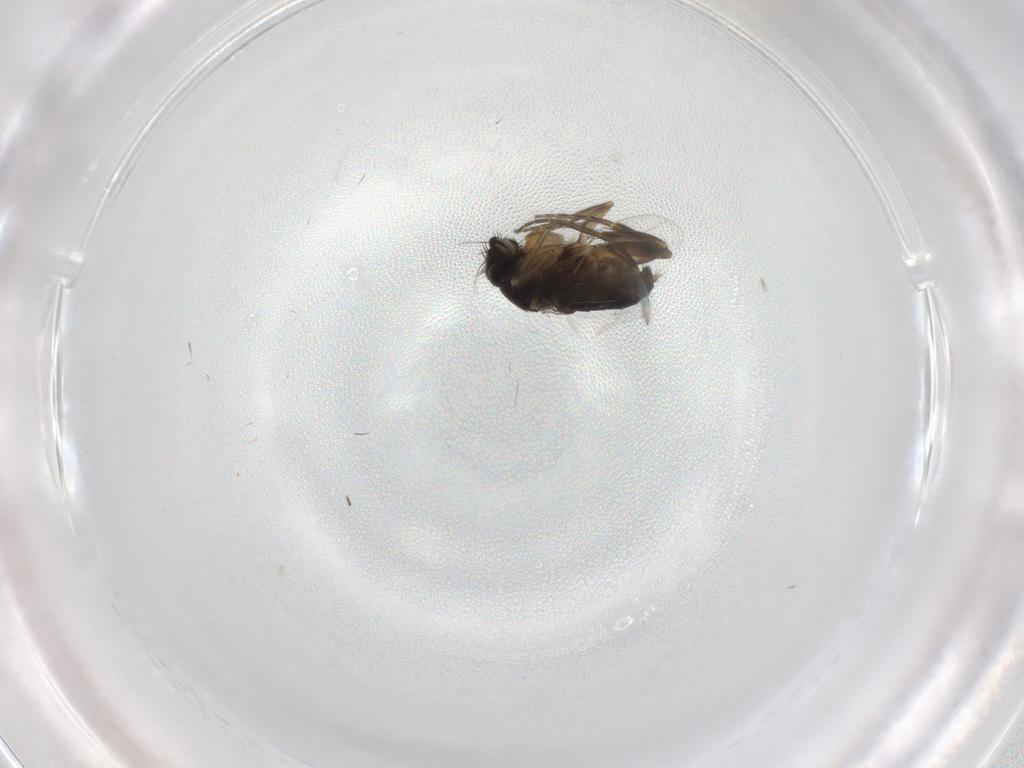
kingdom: Animalia
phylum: Arthropoda
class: Insecta
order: Diptera
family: Phoridae
